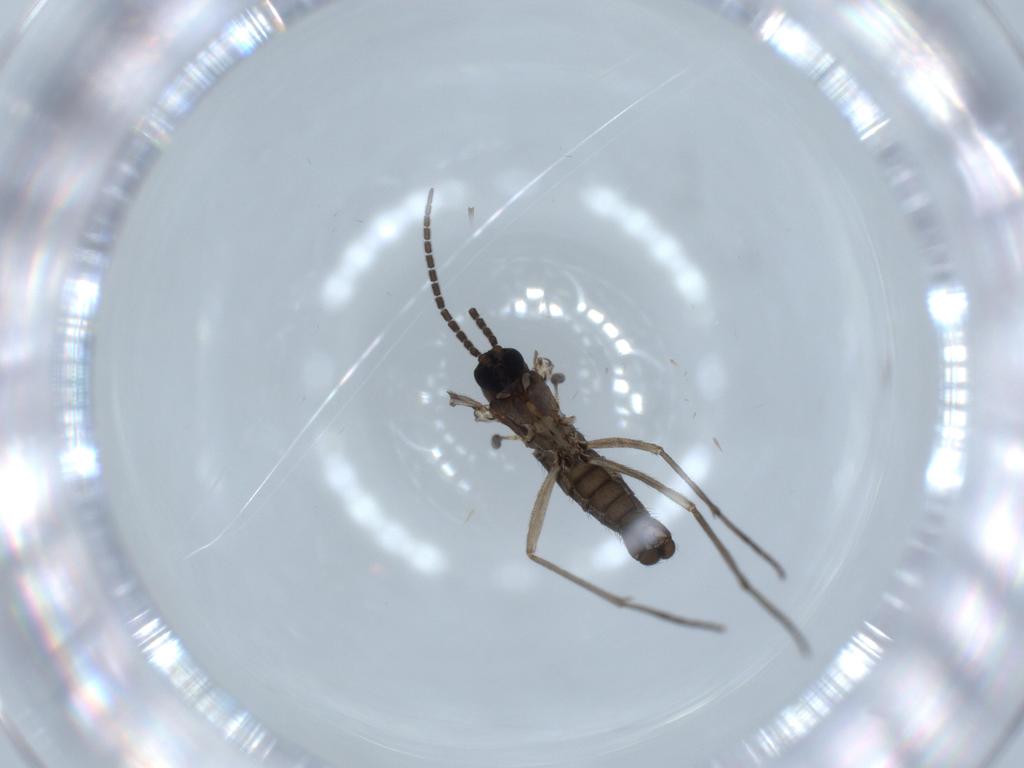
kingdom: Animalia
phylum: Arthropoda
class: Insecta
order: Diptera
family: Sciaridae
